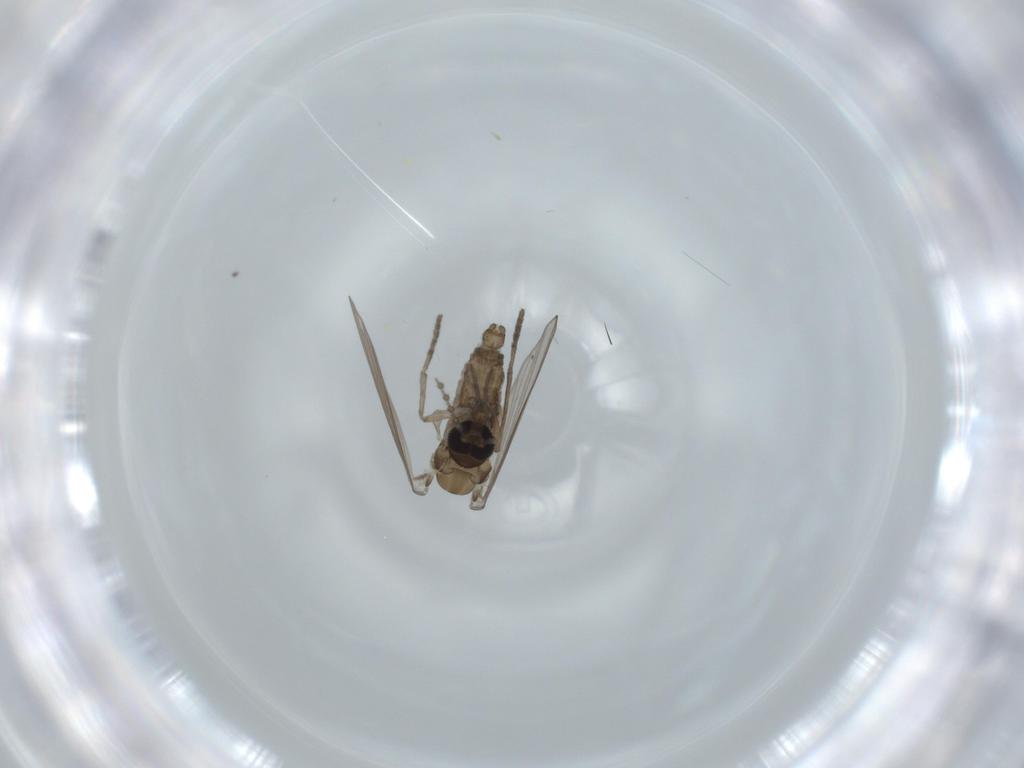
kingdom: Animalia
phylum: Arthropoda
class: Insecta
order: Diptera
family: Psychodidae
